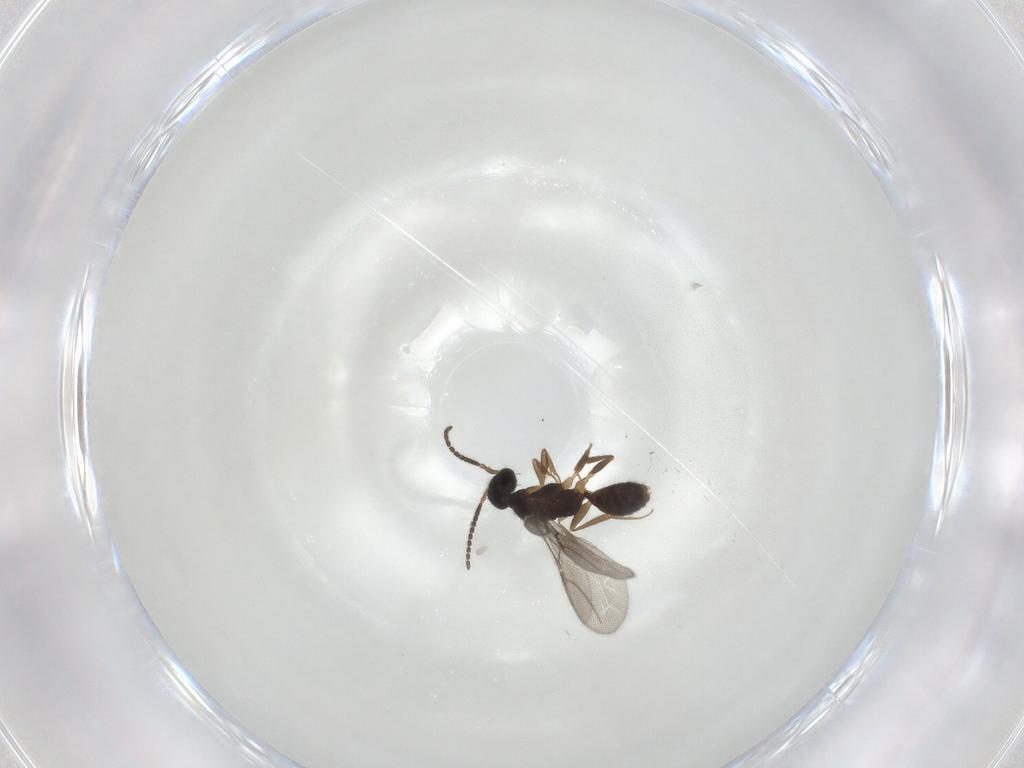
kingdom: Animalia
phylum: Arthropoda
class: Insecta
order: Hymenoptera
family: Bethylidae
